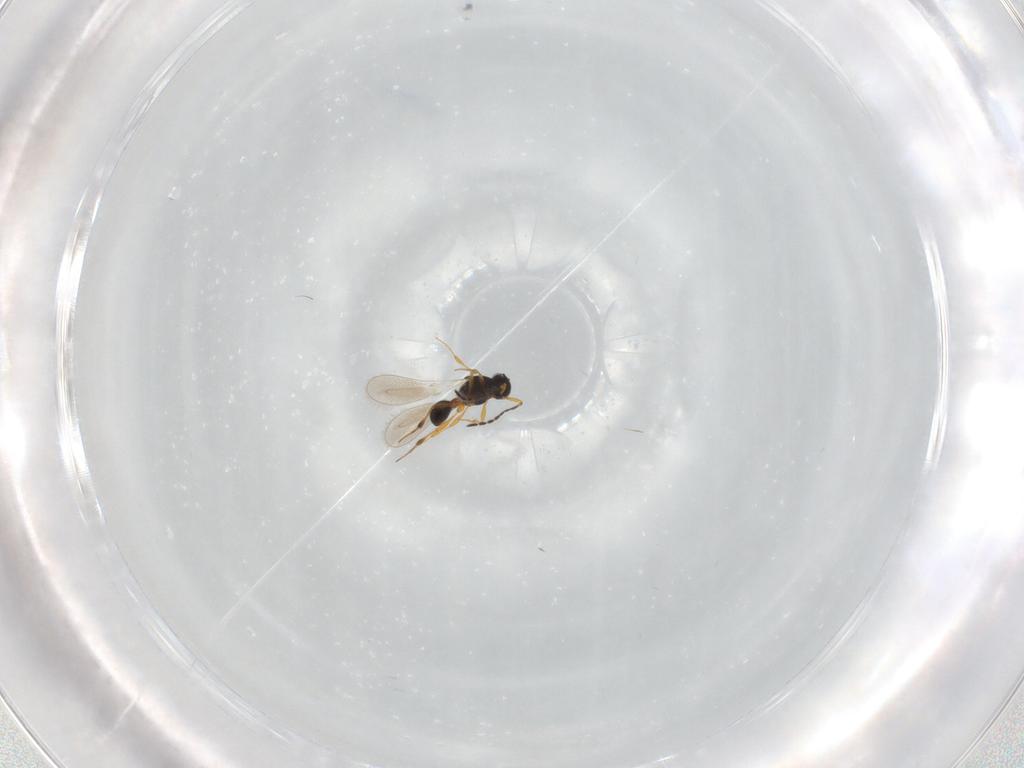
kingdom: Animalia
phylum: Arthropoda
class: Insecta
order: Hymenoptera
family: Platygastridae
